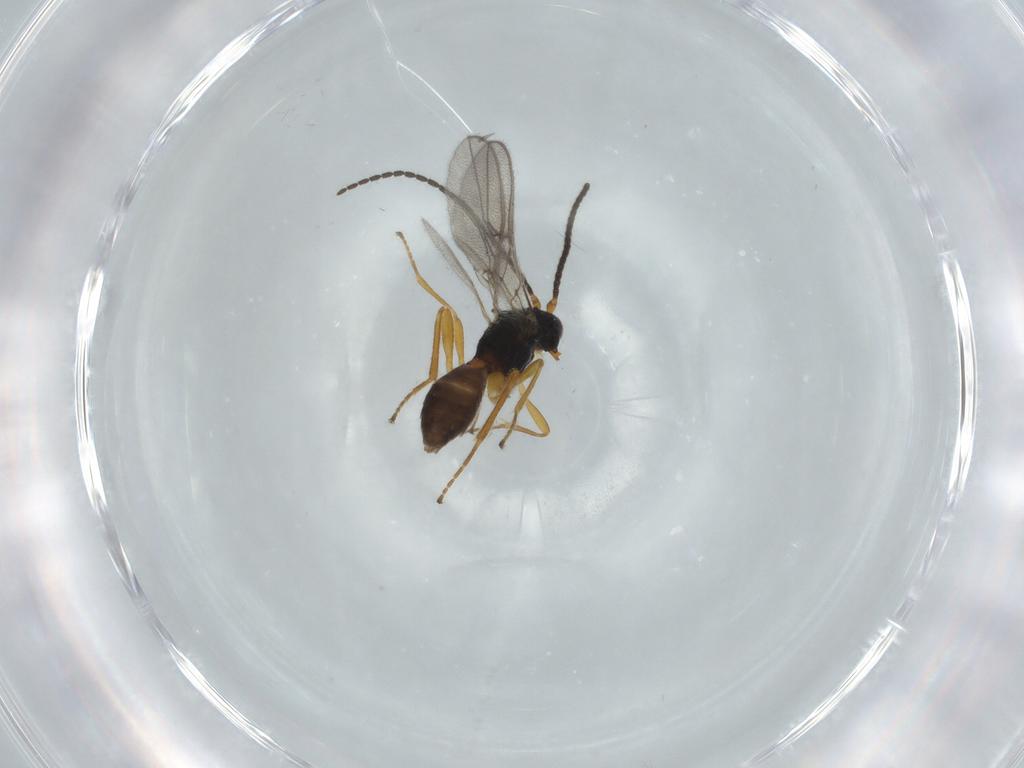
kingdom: Animalia
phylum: Arthropoda
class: Insecta
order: Hymenoptera
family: Braconidae
